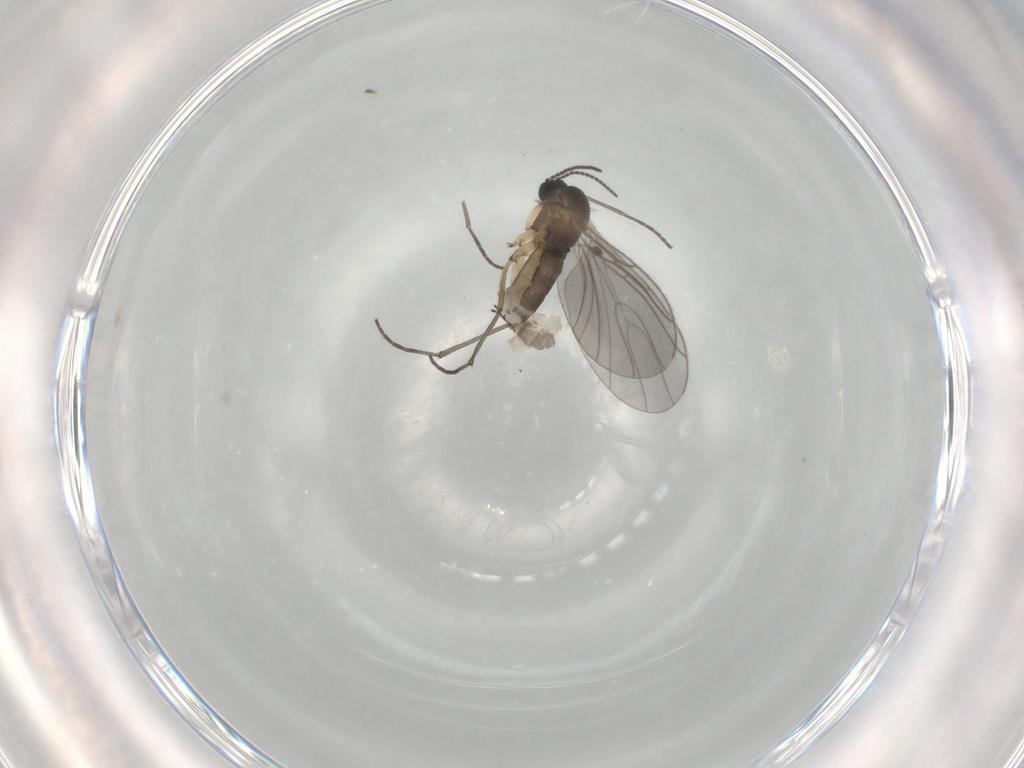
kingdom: Animalia
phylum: Arthropoda
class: Insecta
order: Diptera
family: Sciaridae
